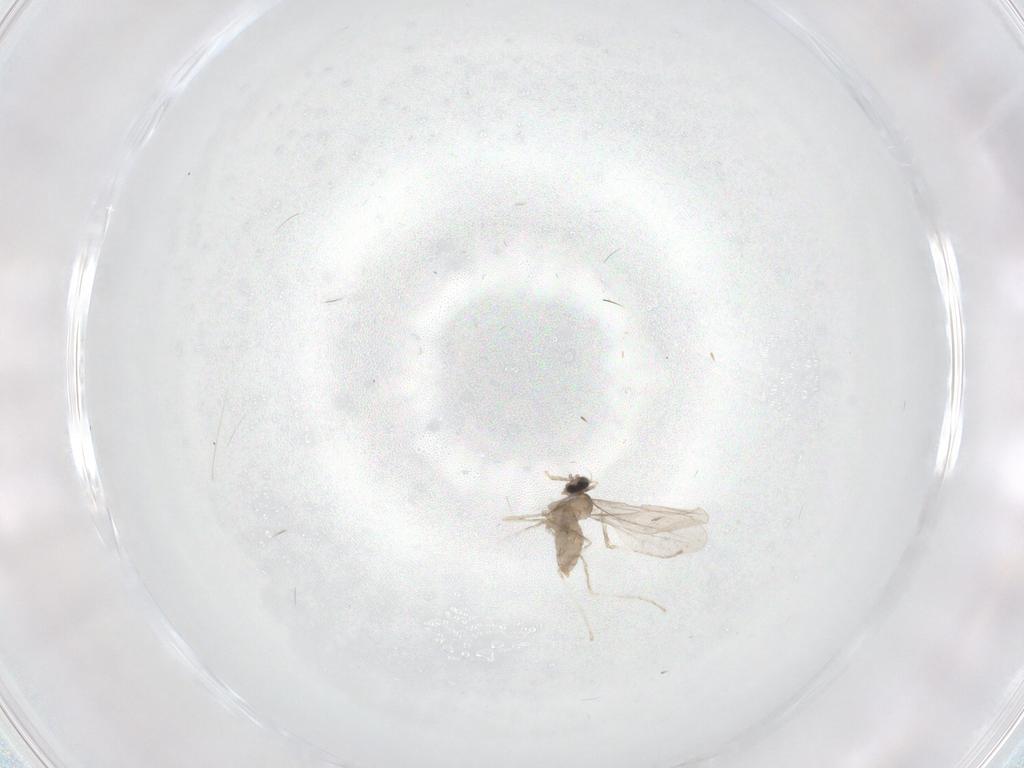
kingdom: Animalia
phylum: Arthropoda
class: Insecta
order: Diptera
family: Cecidomyiidae
